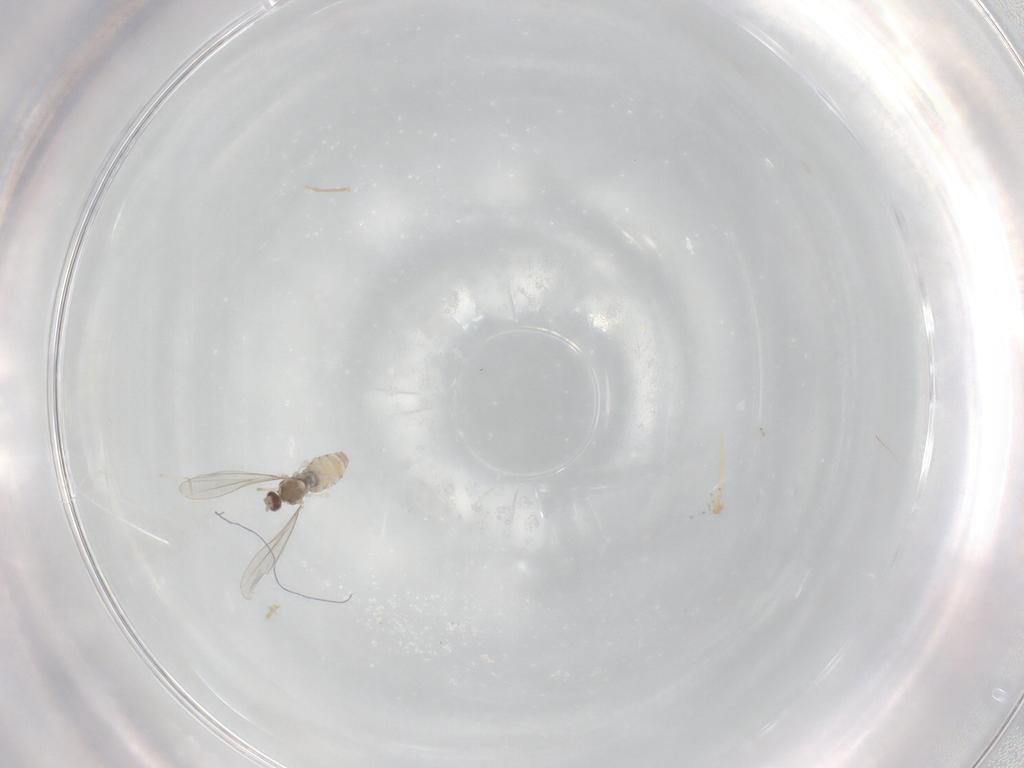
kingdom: Animalia
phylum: Arthropoda
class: Insecta
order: Diptera
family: Cecidomyiidae
